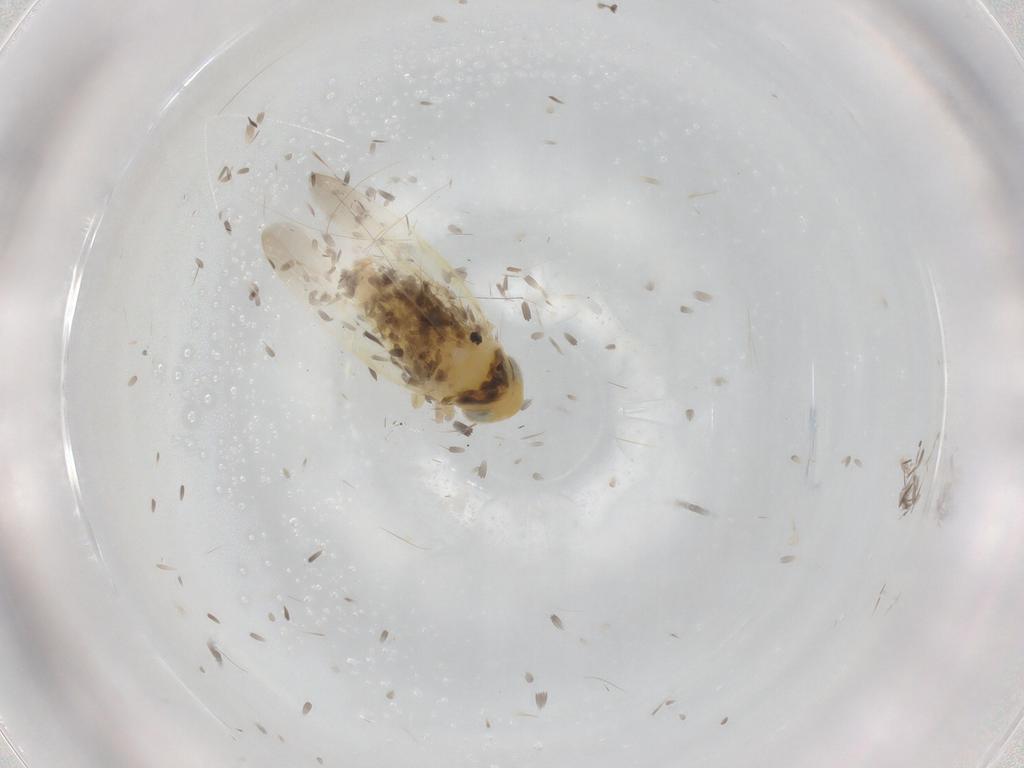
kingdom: Animalia
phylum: Arthropoda
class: Insecta
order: Hemiptera
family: Cicadellidae
